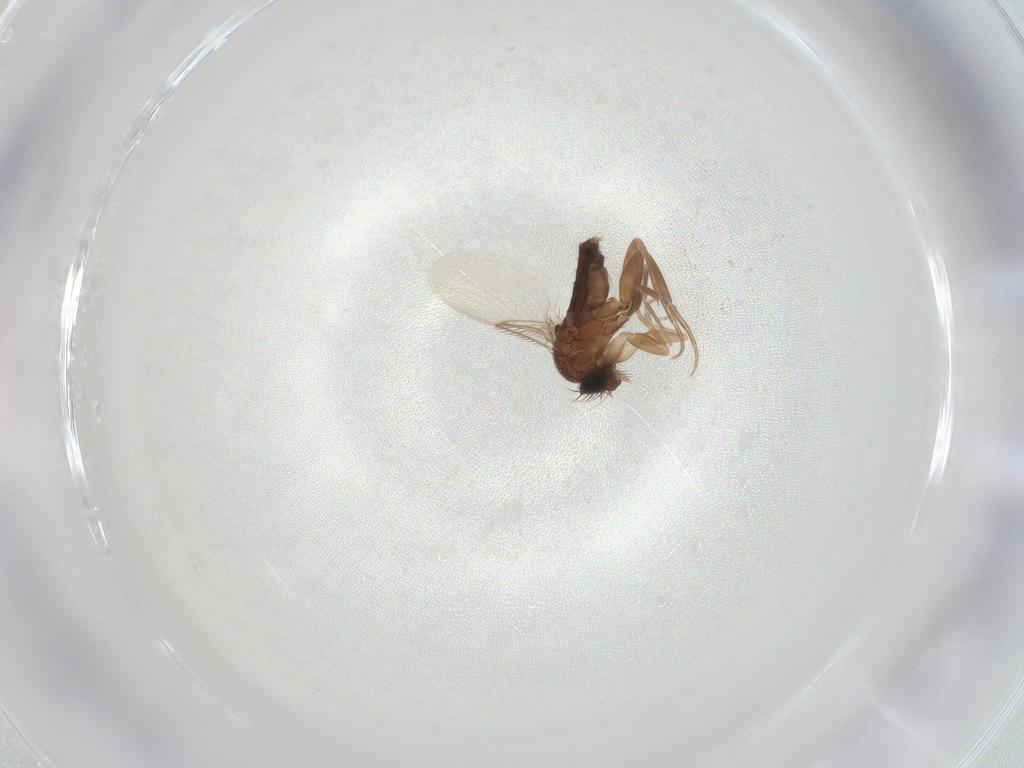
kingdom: Animalia
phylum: Arthropoda
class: Insecta
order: Diptera
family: Phoridae
